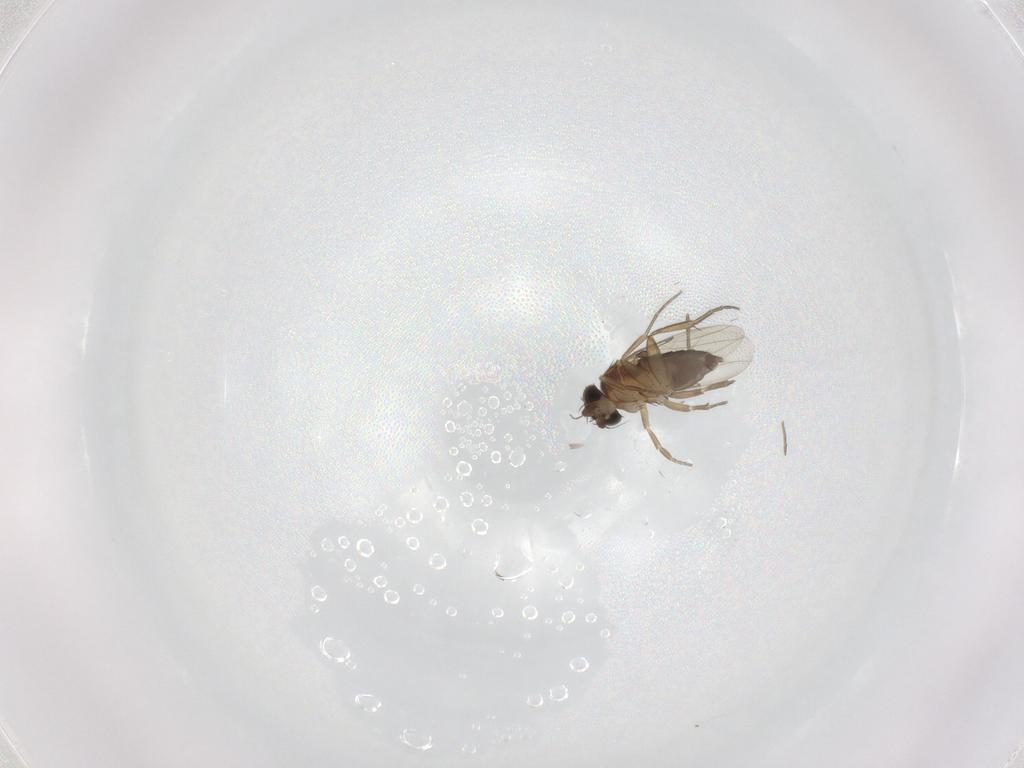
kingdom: Animalia
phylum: Arthropoda
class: Insecta
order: Diptera
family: Phoridae
